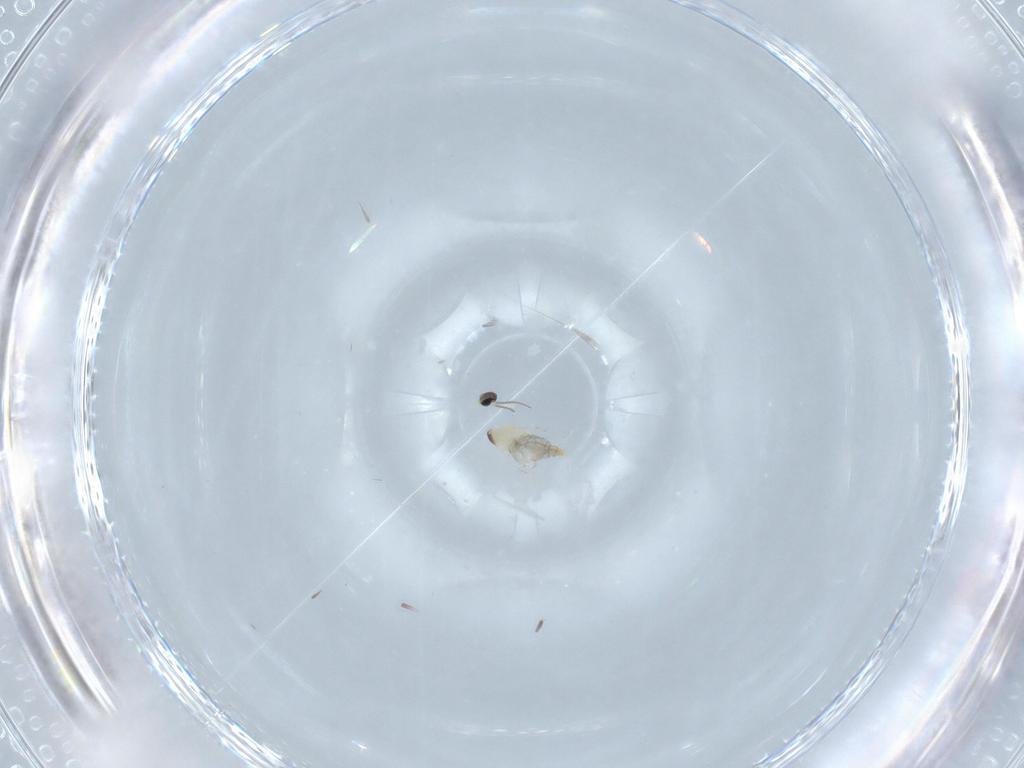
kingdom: Animalia
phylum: Arthropoda
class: Insecta
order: Diptera
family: Cecidomyiidae
